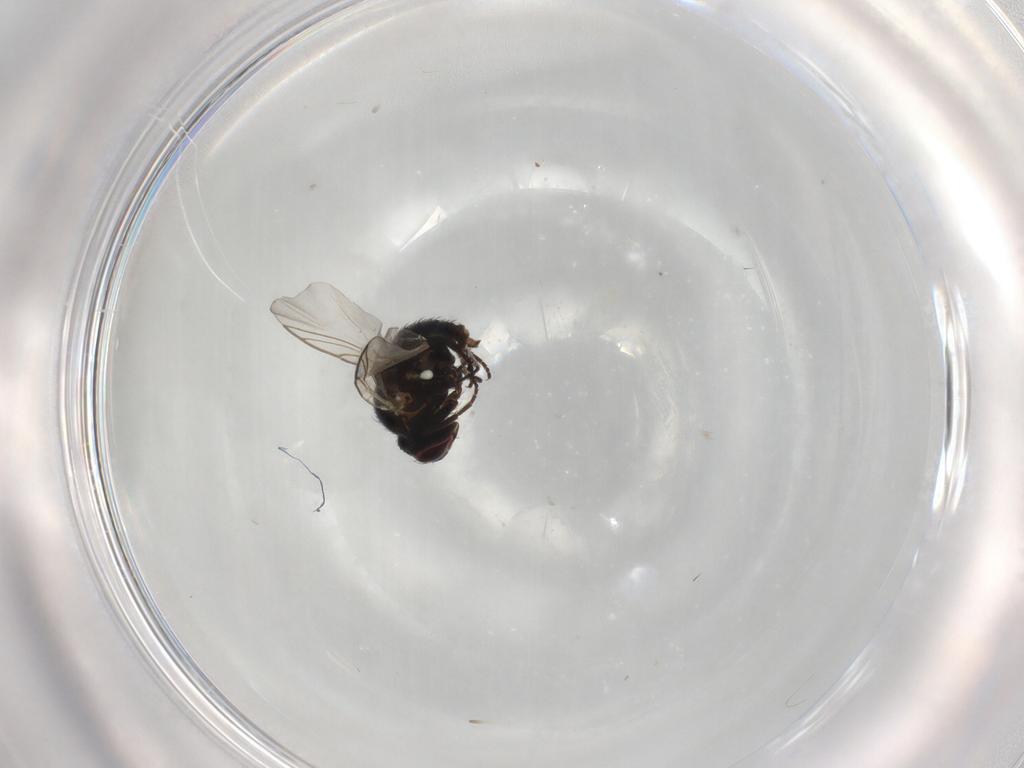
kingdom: Animalia
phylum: Arthropoda
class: Insecta
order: Diptera
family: Agromyzidae
